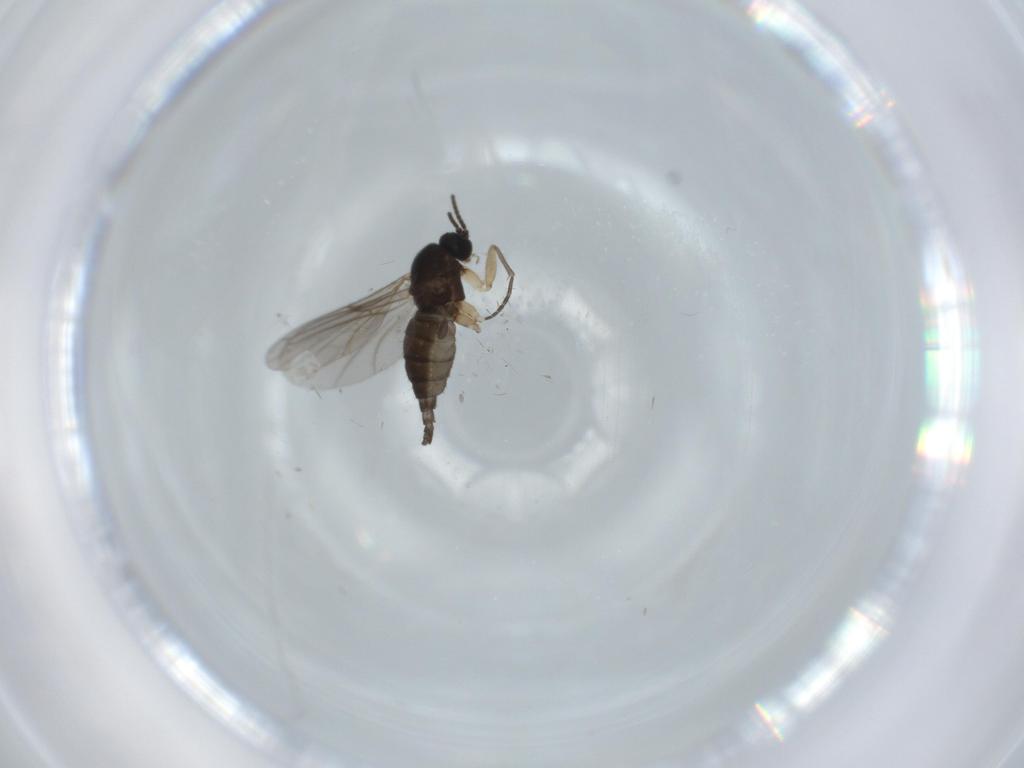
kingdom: Animalia
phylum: Arthropoda
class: Insecta
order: Diptera
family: Sciaridae
